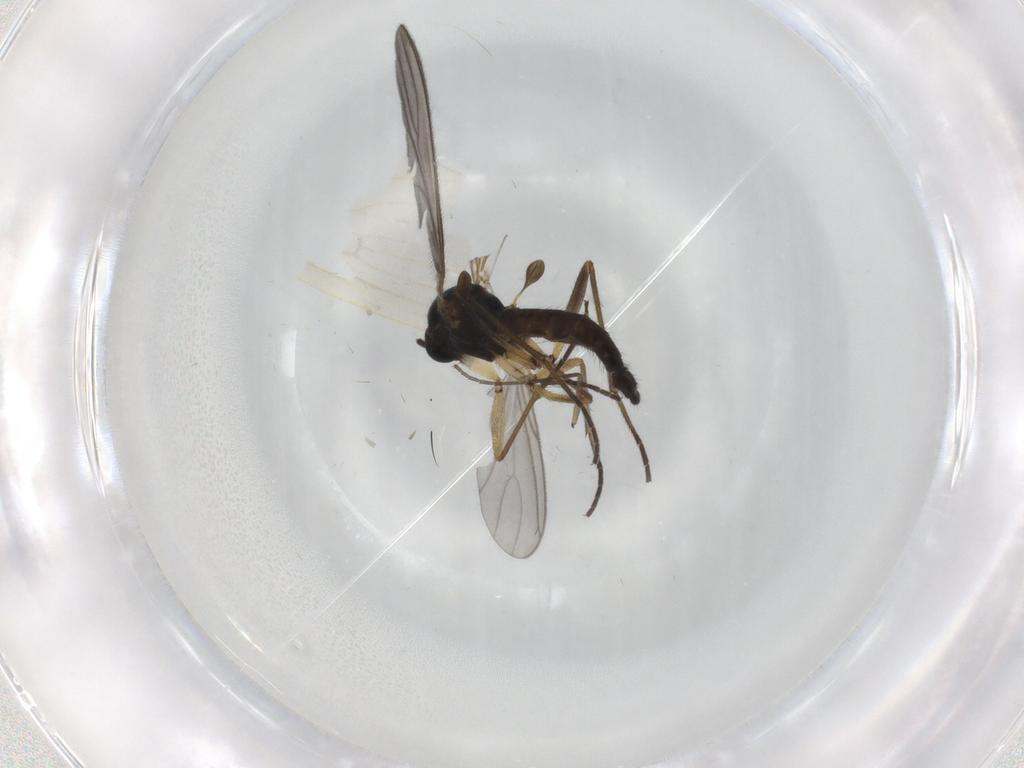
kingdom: Animalia
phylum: Arthropoda
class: Insecta
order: Diptera
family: Sciaridae
